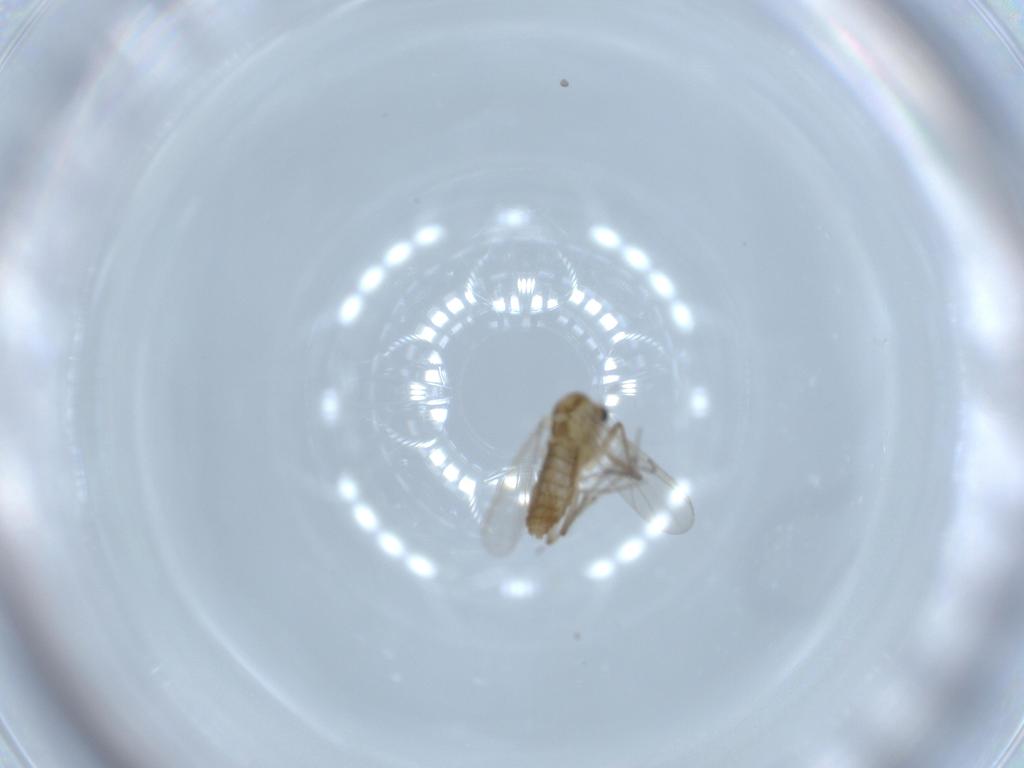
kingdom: Animalia
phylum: Arthropoda
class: Insecta
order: Diptera
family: Chironomidae
